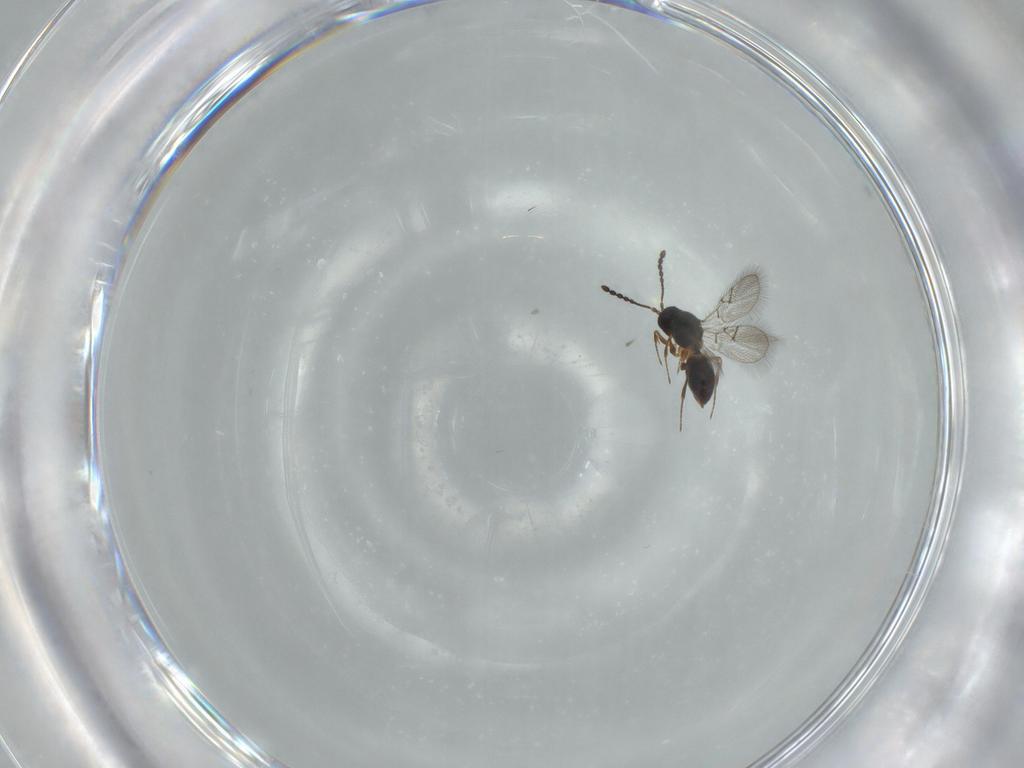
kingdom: Animalia
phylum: Arthropoda
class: Insecta
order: Hymenoptera
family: Figitidae
